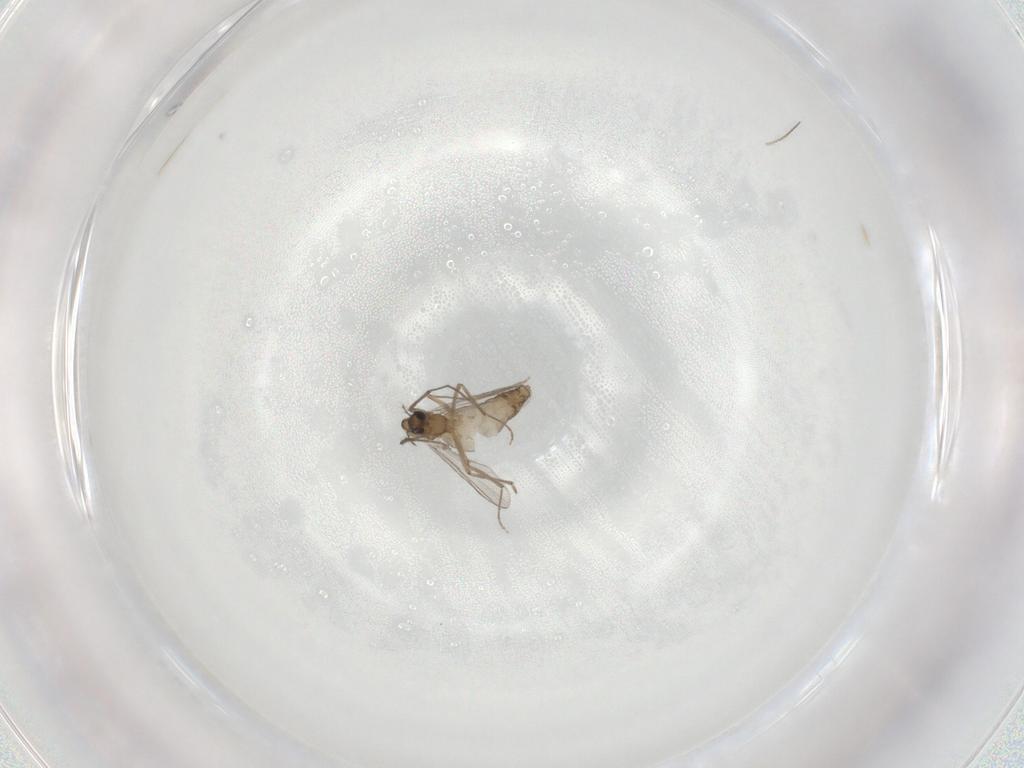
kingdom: Animalia
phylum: Arthropoda
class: Insecta
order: Diptera
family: Chironomidae
